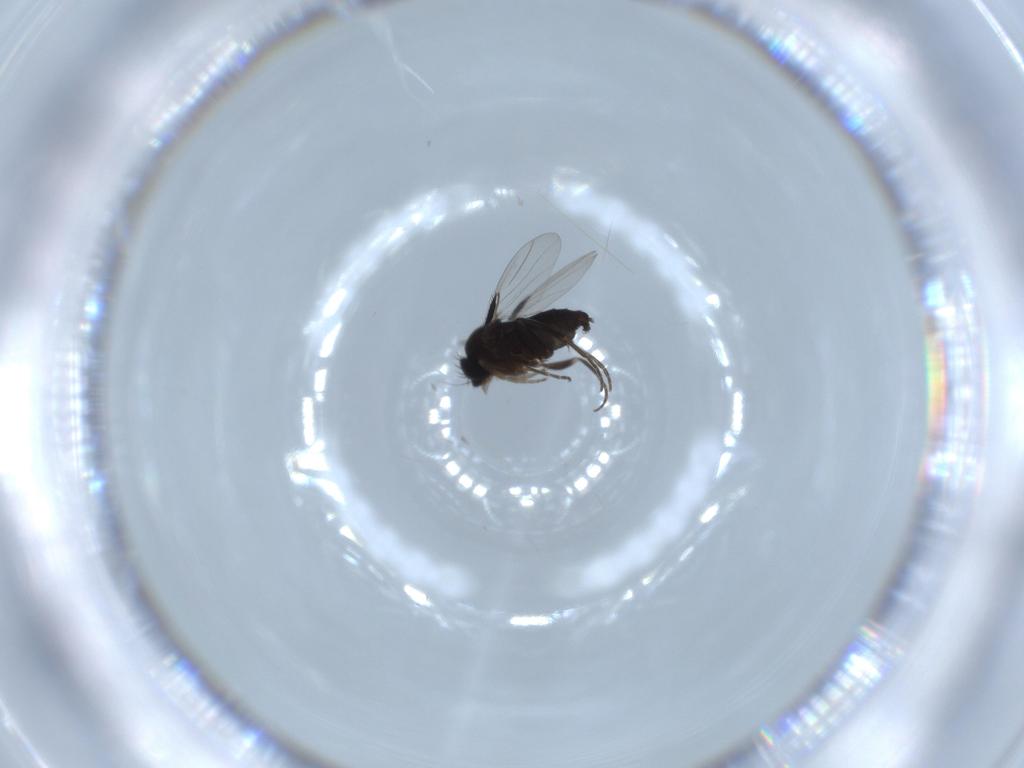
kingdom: Animalia
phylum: Arthropoda
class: Insecta
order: Diptera
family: Phoridae
